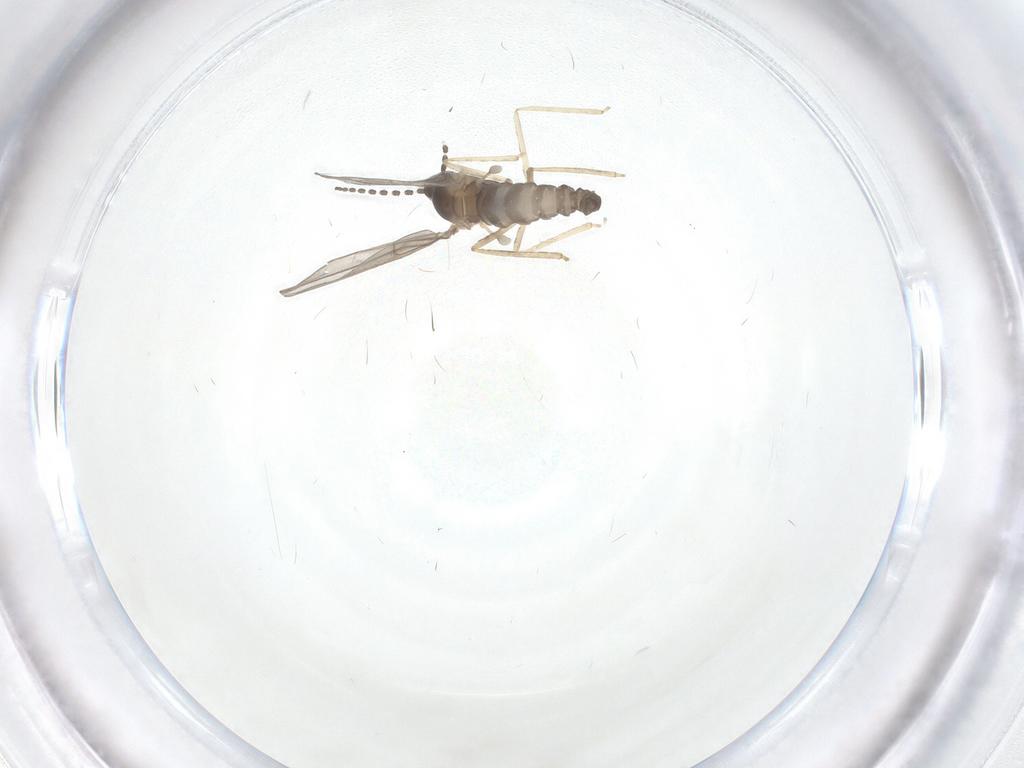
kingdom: Animalia
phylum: Arthropoda
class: Insecta
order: Diptera
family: Chironomidae
